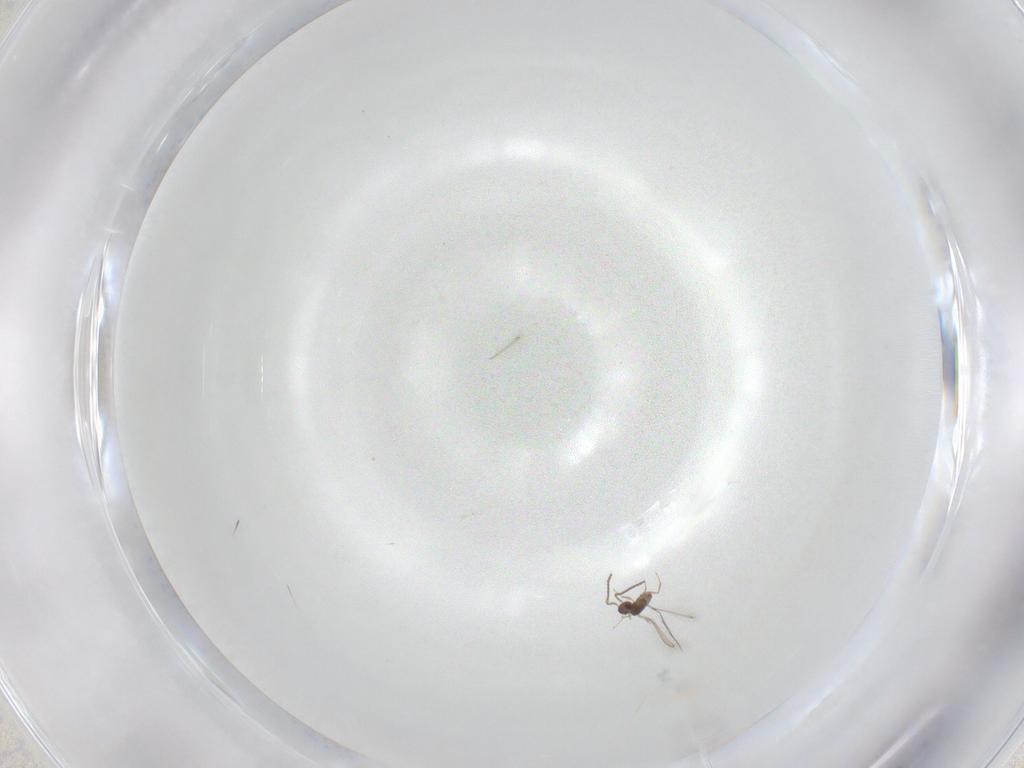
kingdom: Animalia
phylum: Arthropoda
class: Insecta
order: Hymenoptera
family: Mymaridae
